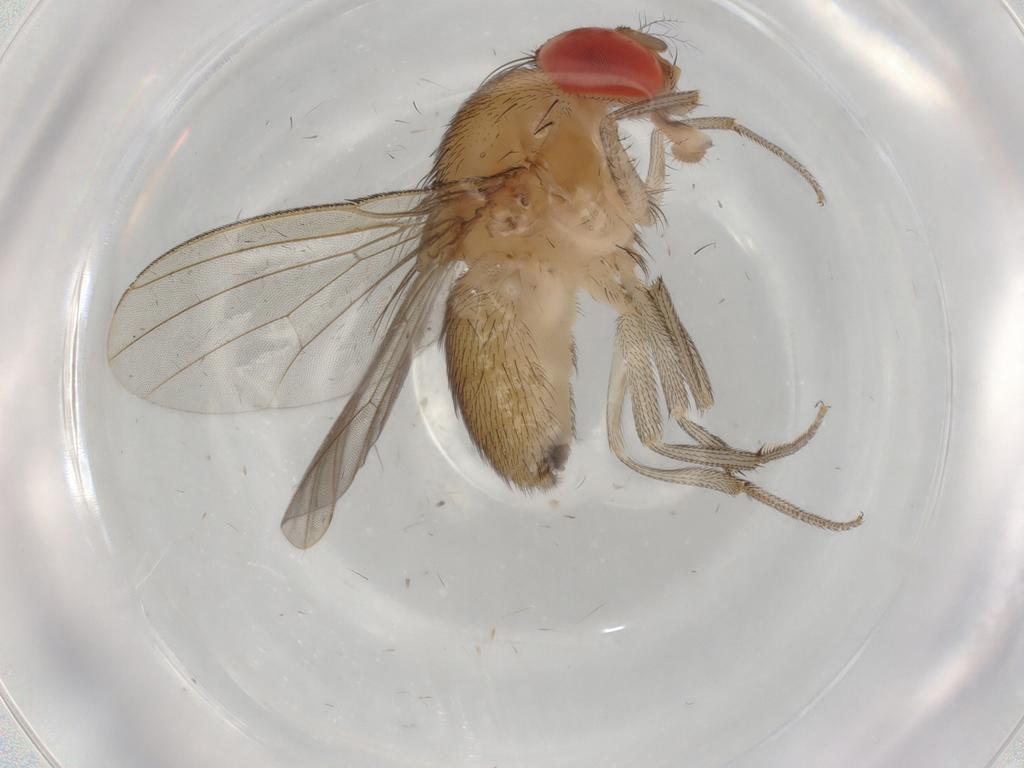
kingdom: Animalia
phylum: Arthropoda
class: Insecta
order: Diptera
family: Drosophilidae
